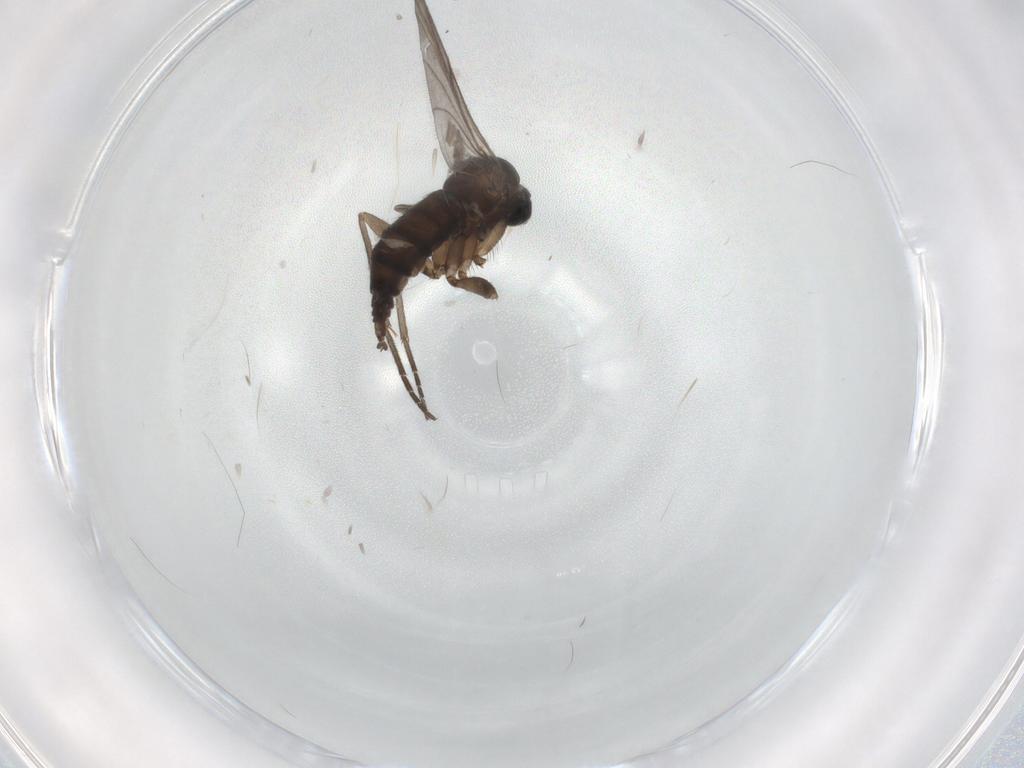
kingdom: Animalia
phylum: Arthropoda
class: Insecta
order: Diptera
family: Sciaridae
